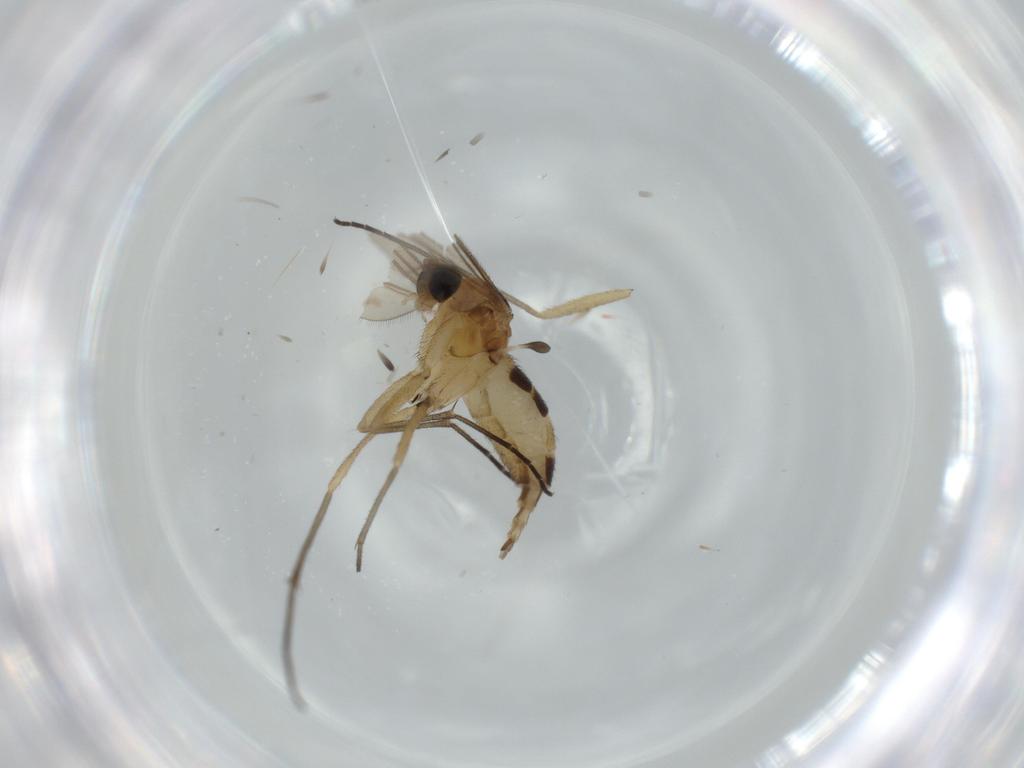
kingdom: Animalia
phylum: Arthropoda
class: Insecta
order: Diptera
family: Sciaridae
